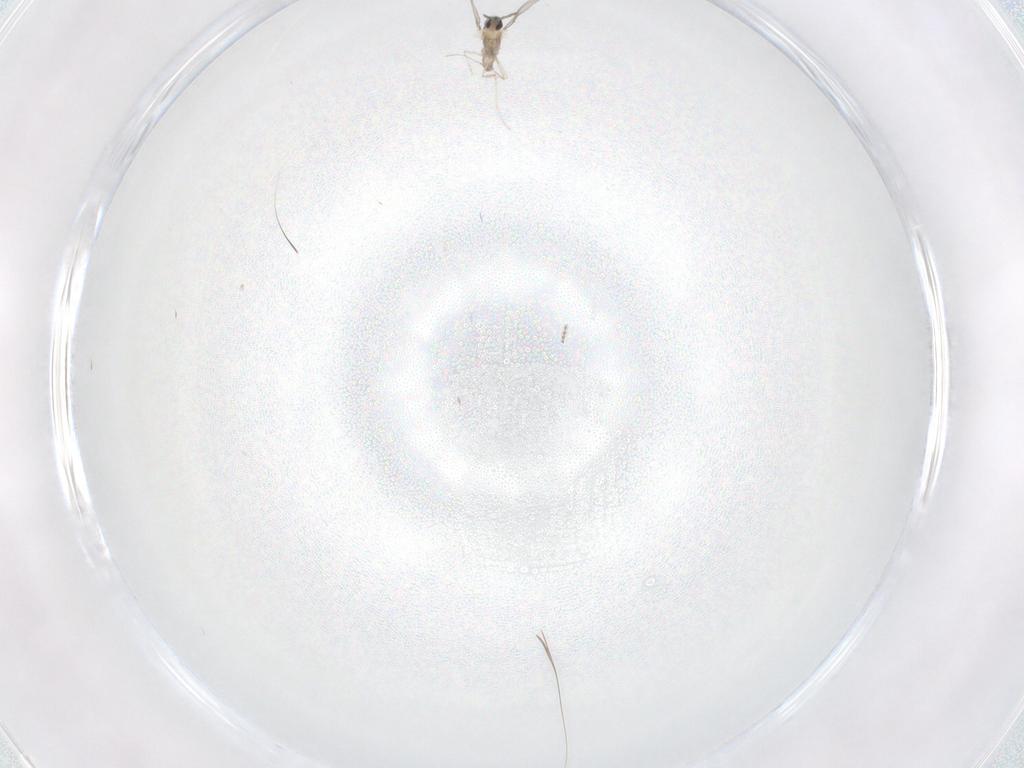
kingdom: Animalia
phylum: Arthropoda
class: Insecta
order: Diptera
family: Cecidomyiidae
